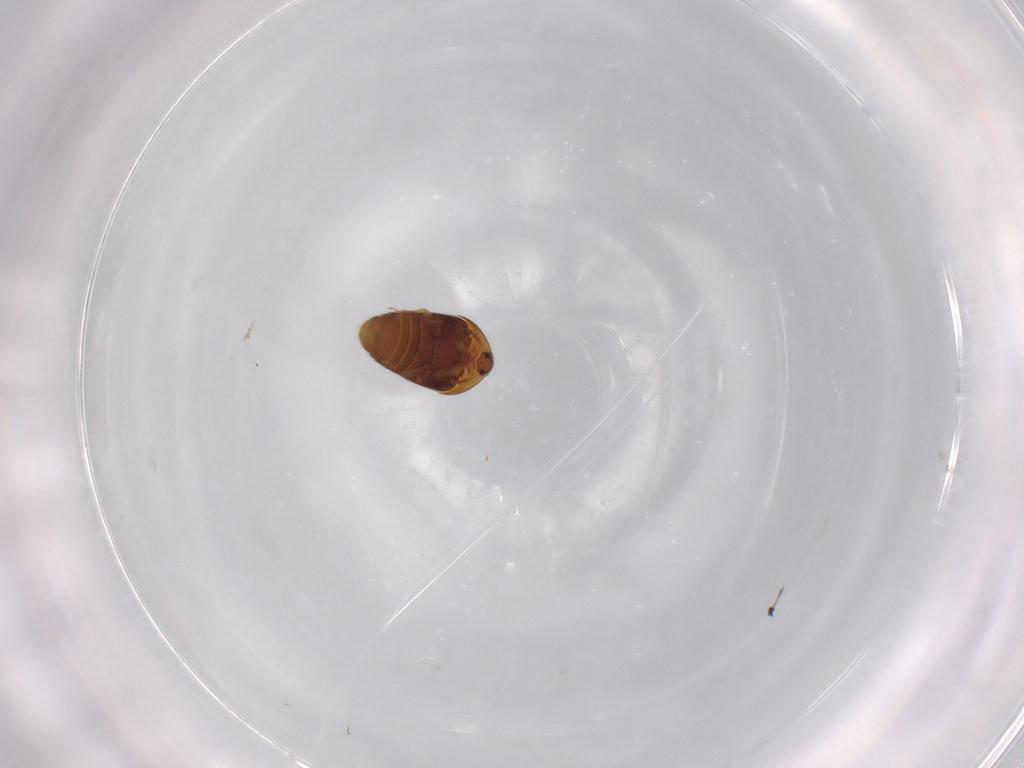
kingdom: Animalia
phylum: Arthropoda
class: Insecta
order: Coleoptera
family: Corylophidae
